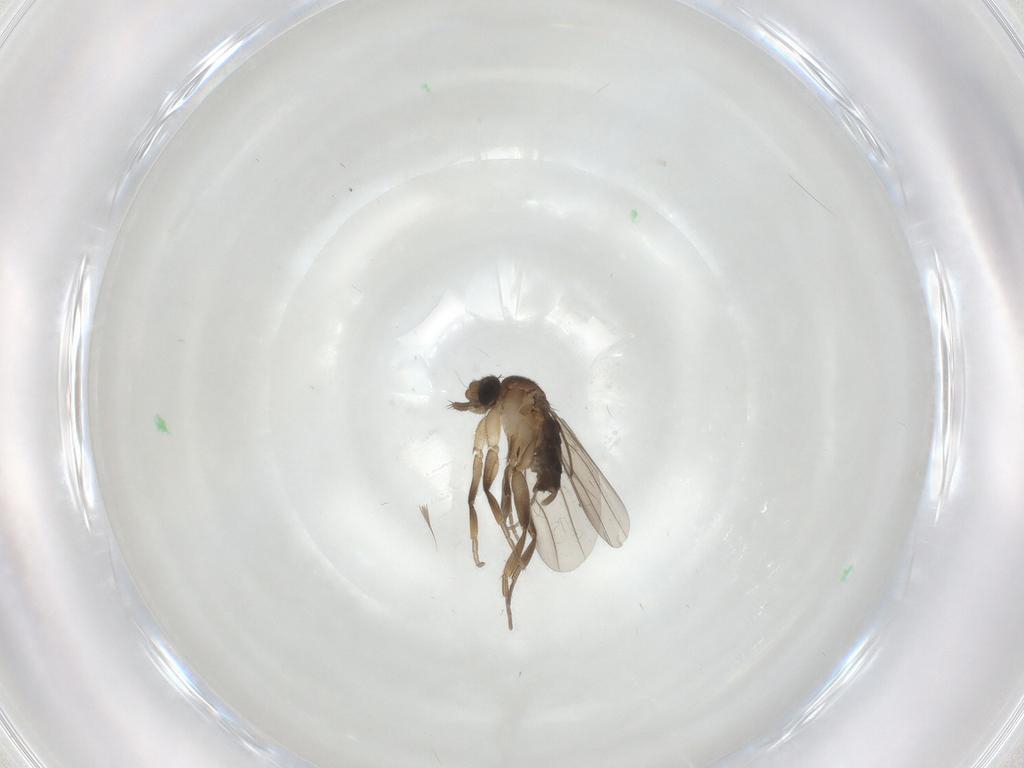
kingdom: Animalia
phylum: Arthropoda
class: Insecta
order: Diptera
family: Phoridae
